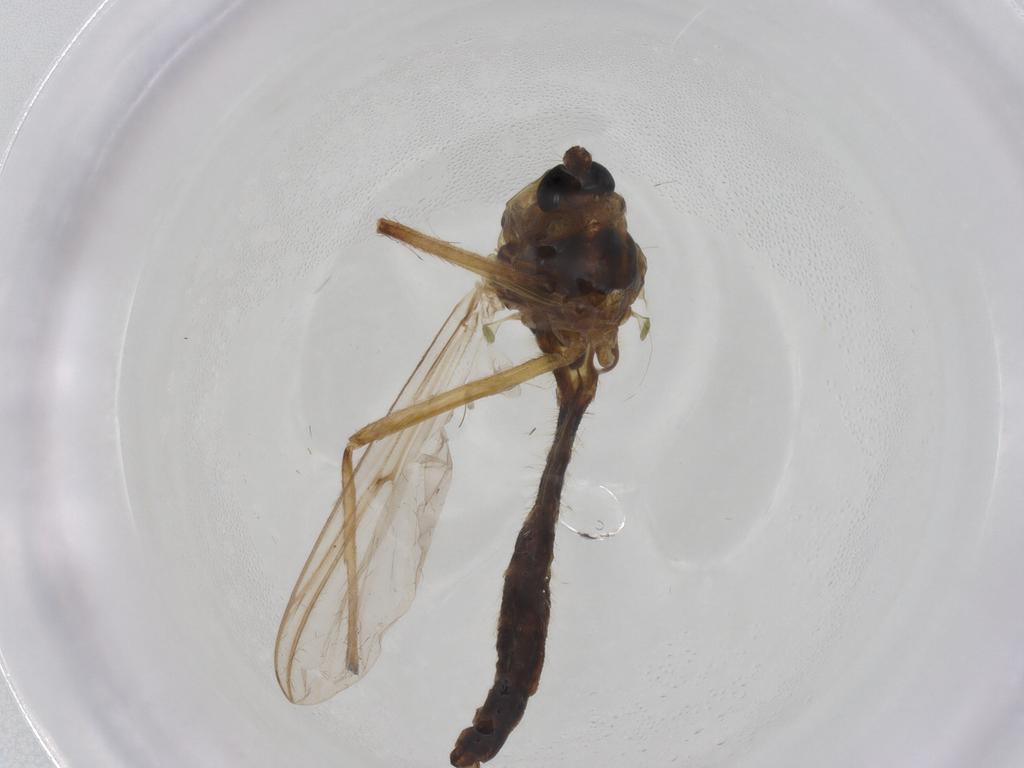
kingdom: Animalia
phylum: Arthropoda
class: Insecta
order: Diptera
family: Chironomidae
